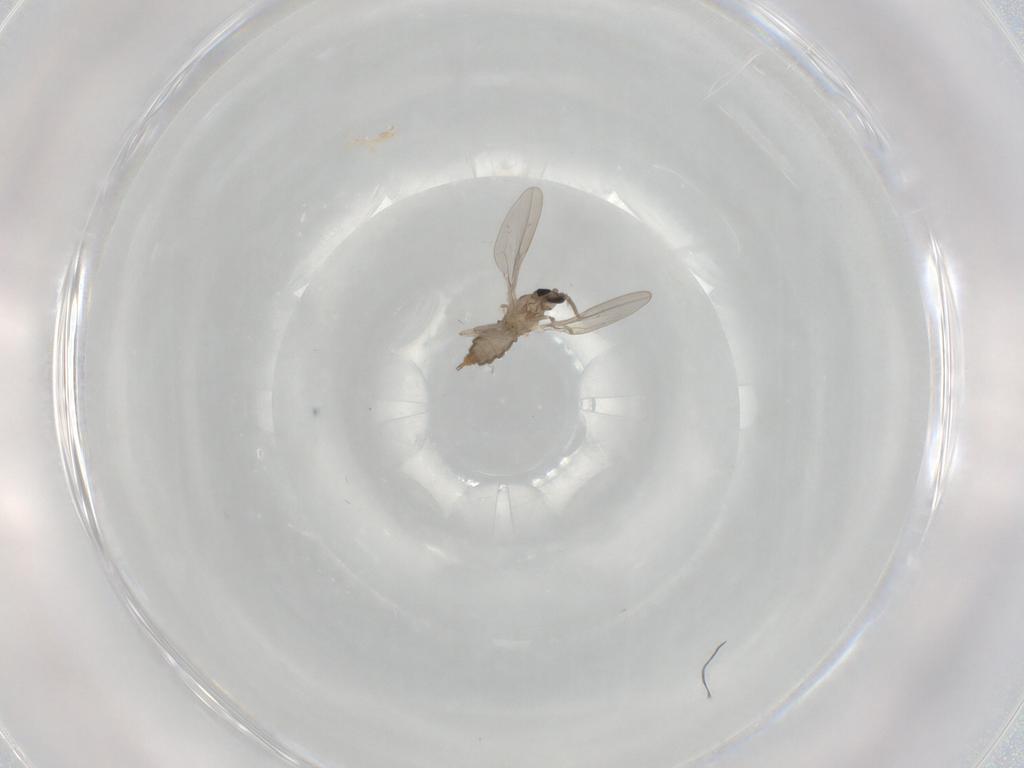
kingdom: Animalia
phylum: Arthropoda
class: Insecta
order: Diptera
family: Cecidomyiidae
